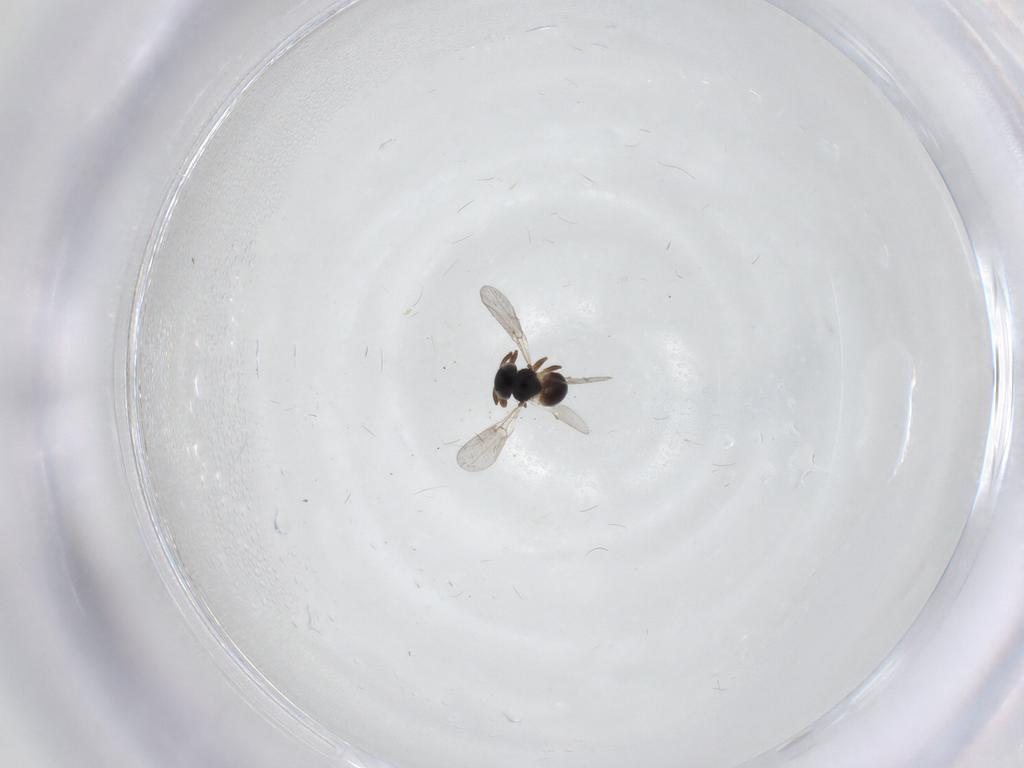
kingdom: Animalia
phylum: Arthropoda
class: Insecta
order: Hymenoptera
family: Platygastridae
